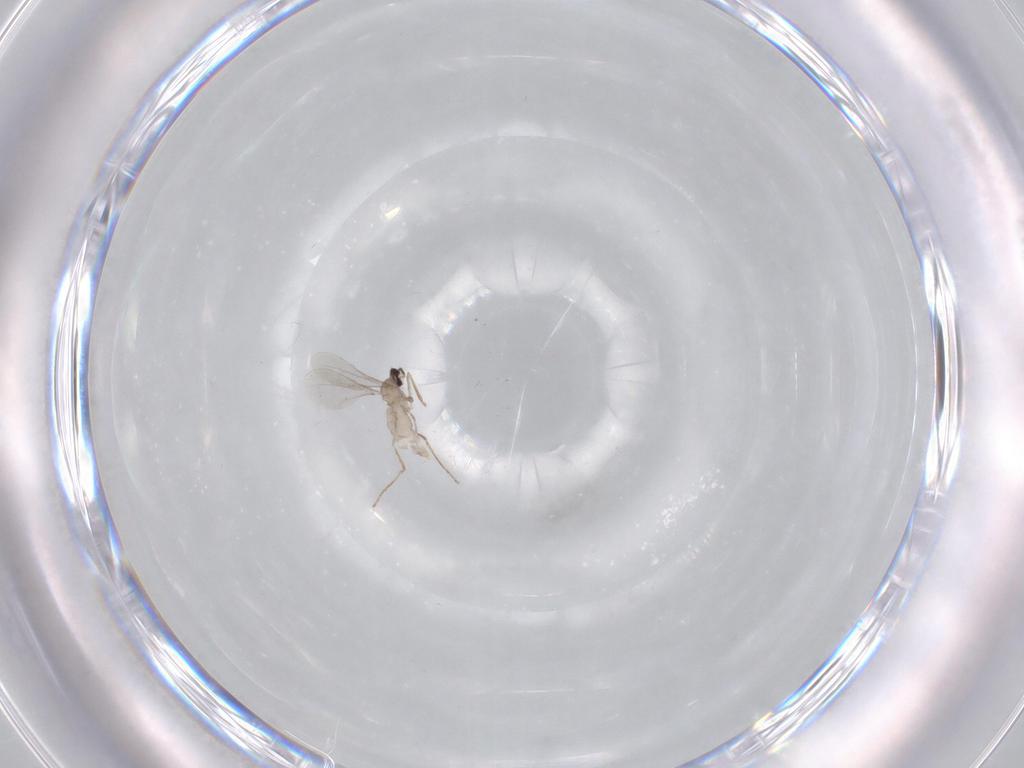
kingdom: Animalia
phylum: Arthropoda
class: Insecta
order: Diptera
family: Cecidomyiidae
